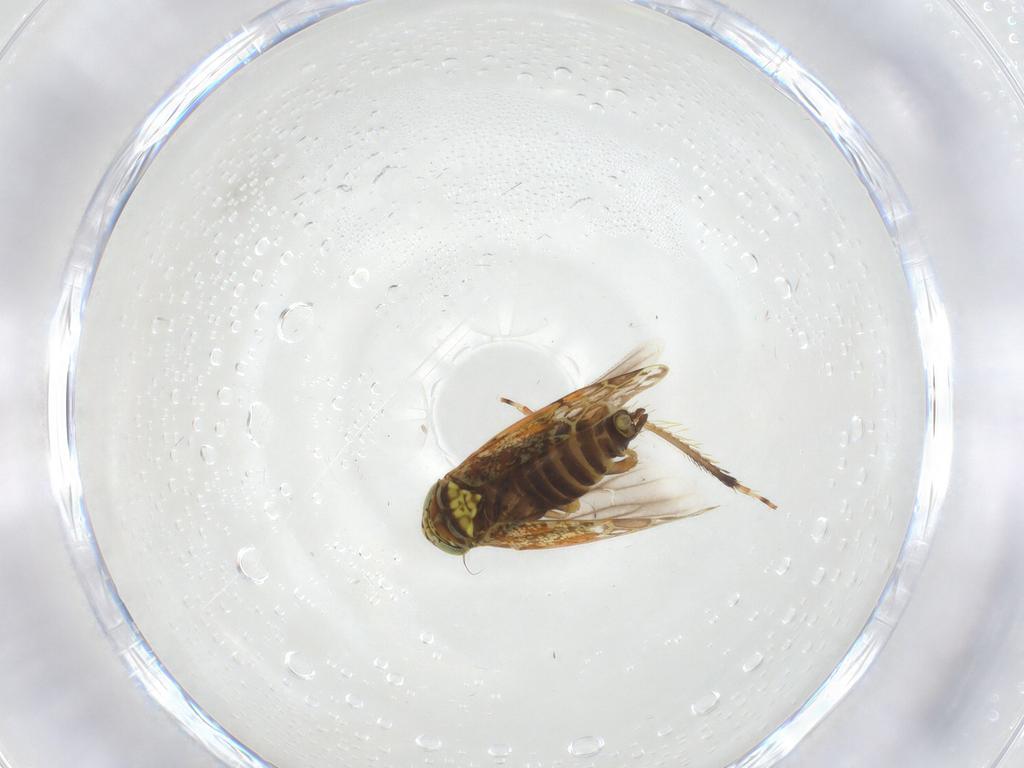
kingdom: Animalia
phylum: Arthropoda
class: Insecta
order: Hemiptera
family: Cicadellidae
